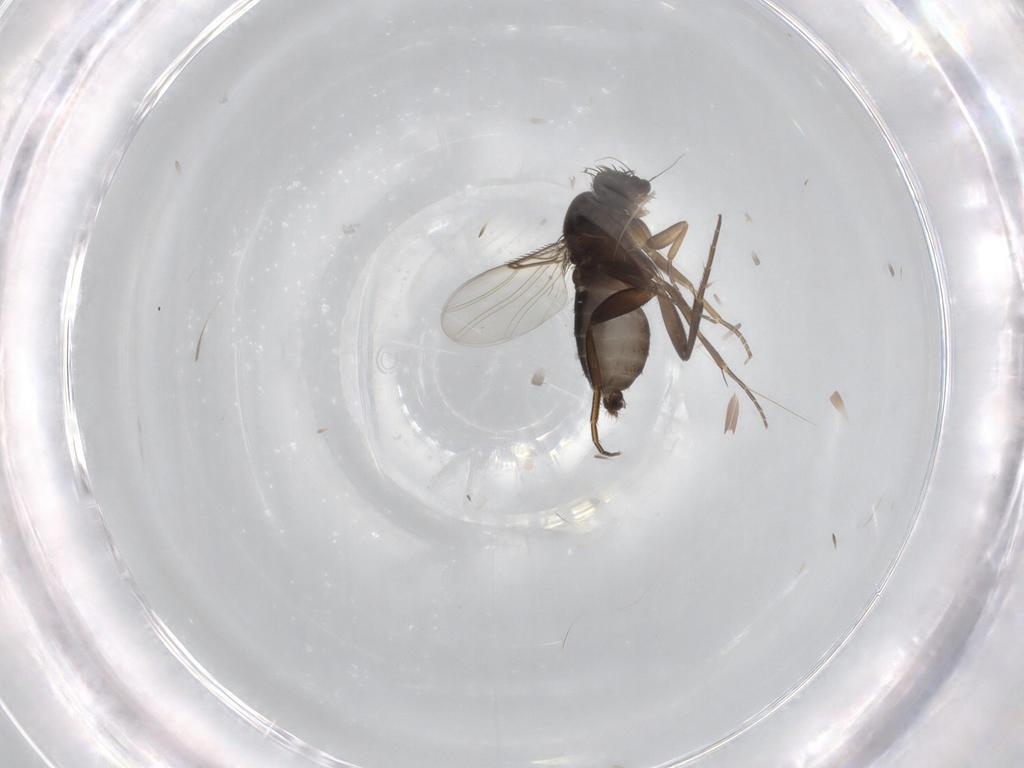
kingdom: Animalia
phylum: Arthropoda
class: Insecta
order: Diptera
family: Phoridae
